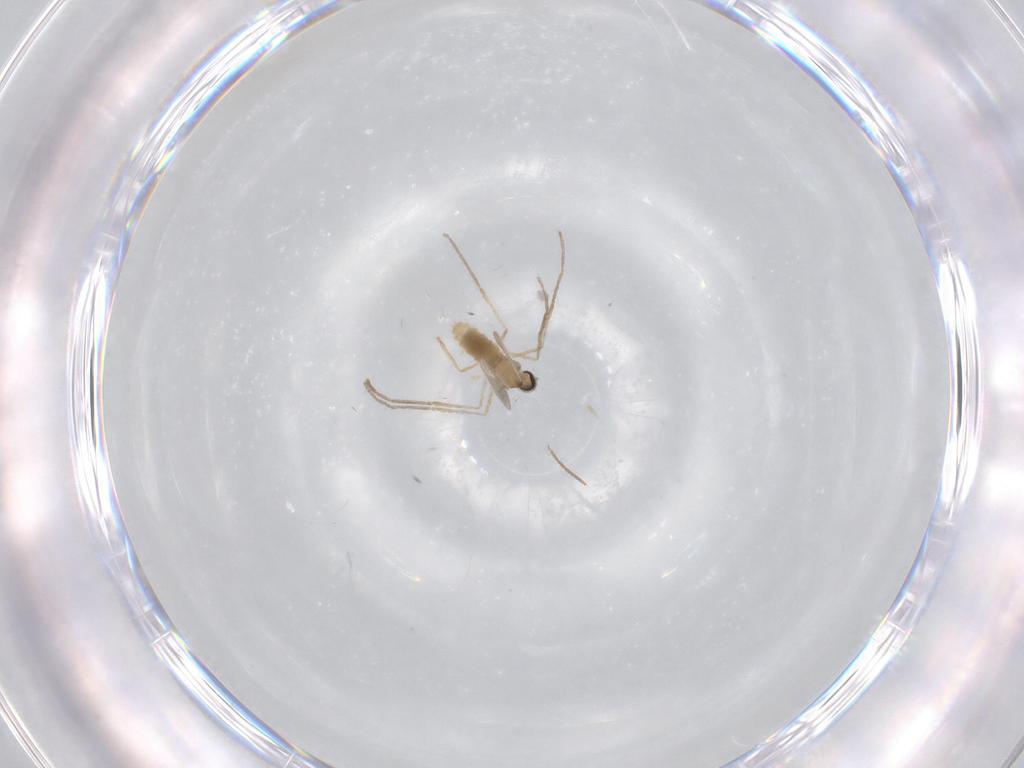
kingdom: Animalia
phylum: Arthropoda
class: Insecta
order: Diptera
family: Cecidomyiidae
